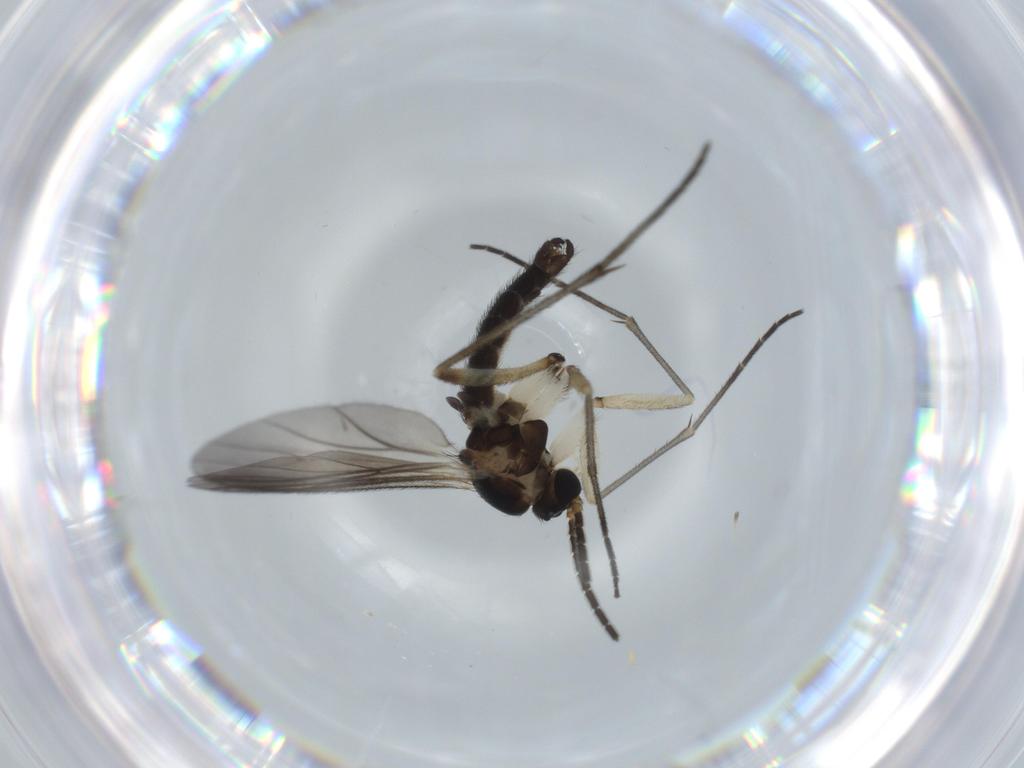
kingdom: Animalia
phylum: Arthropoda
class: Insecta
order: Diptera
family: Sciaridae
